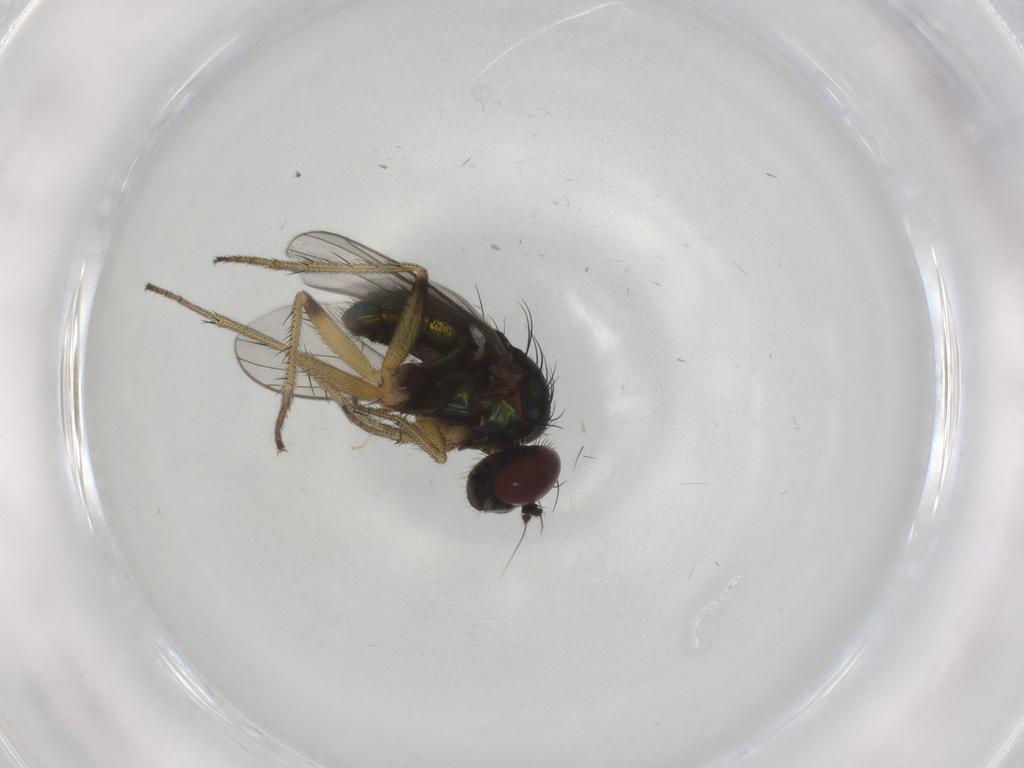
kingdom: Animalia
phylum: Arthropoda
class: Insecta
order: Diptera
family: Dolichopodidae
